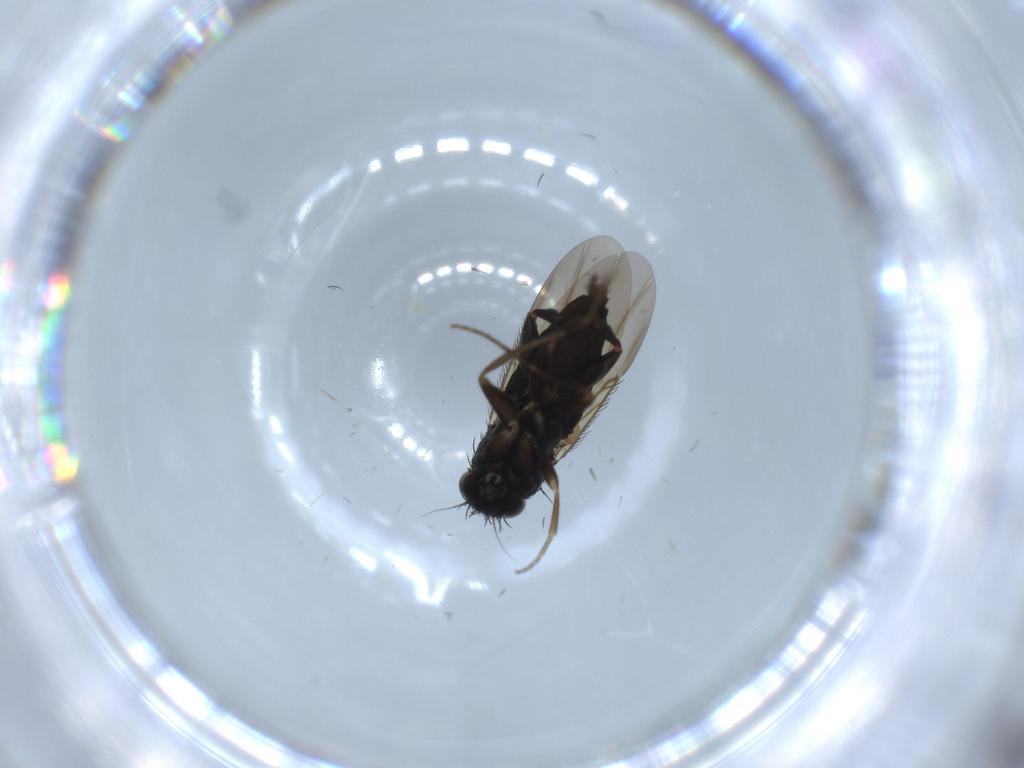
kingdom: Animalia
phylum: Arthropoda
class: Insecta
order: Diptera
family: Phoridae
